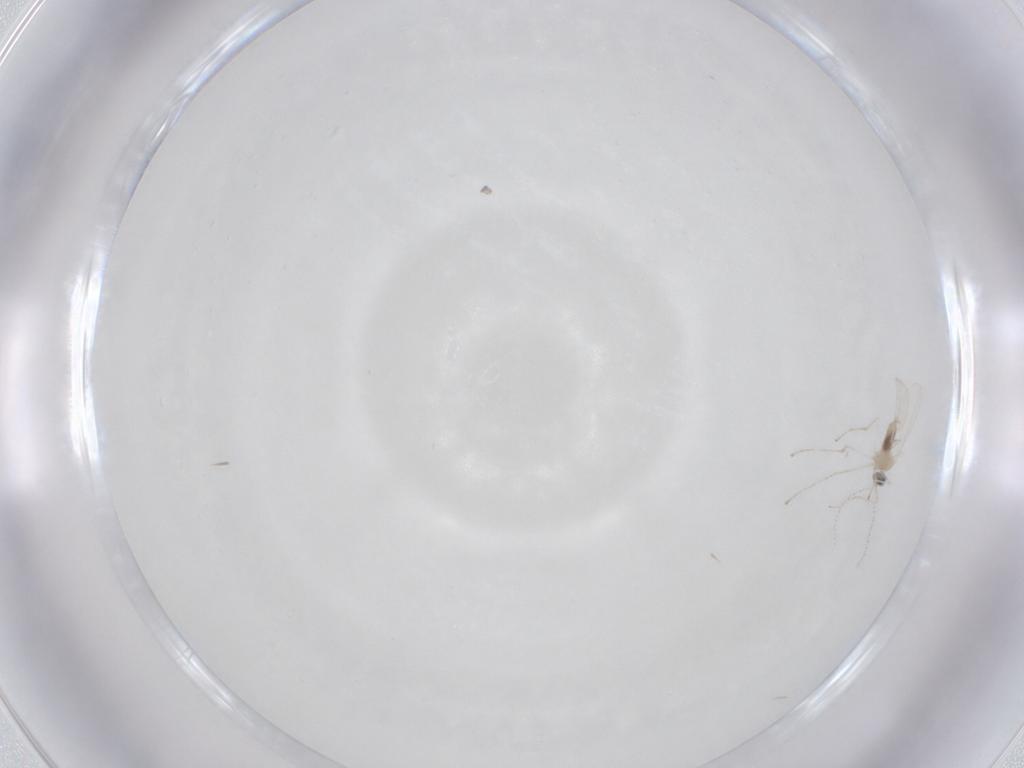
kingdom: Animalia
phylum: Arthropoda
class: Insecta
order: Diptera
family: Cecidomyiidae
